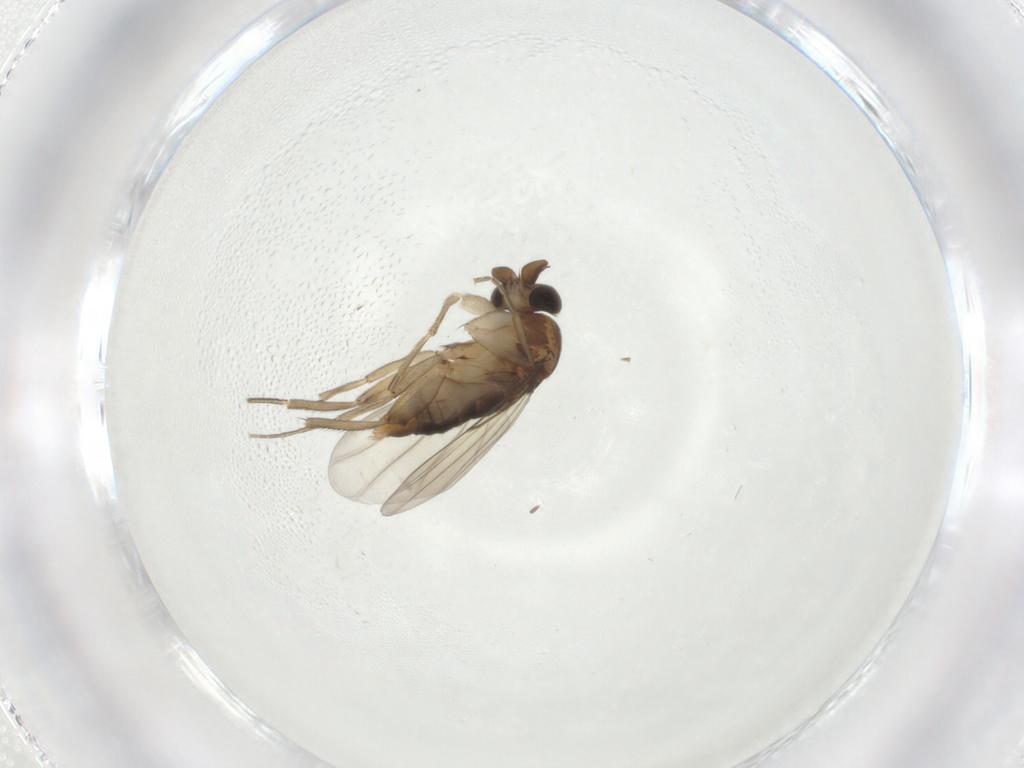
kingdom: Animalia
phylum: Arthropoda
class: Insecta
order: Diptera
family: Phoridae
